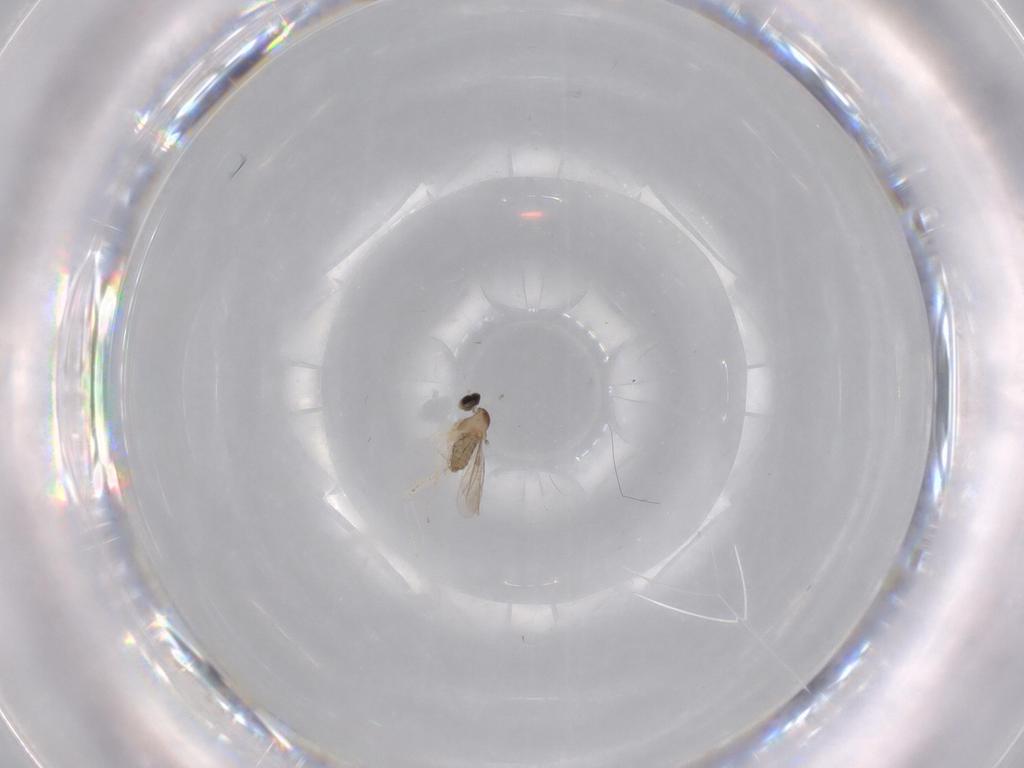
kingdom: Animalia
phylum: Arthropoda
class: Insecta
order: Diptera
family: Cecidomyiidae
